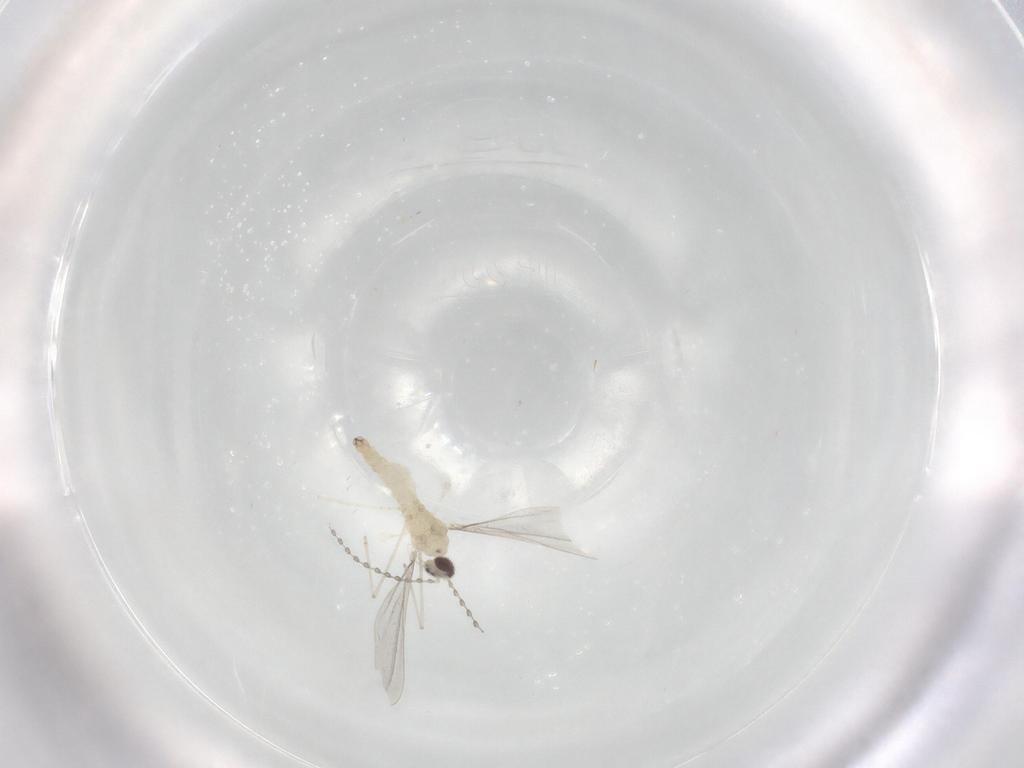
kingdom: Animalia
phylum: Arthropoda
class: Insecta
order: Diptera
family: Cecidomyiidae
